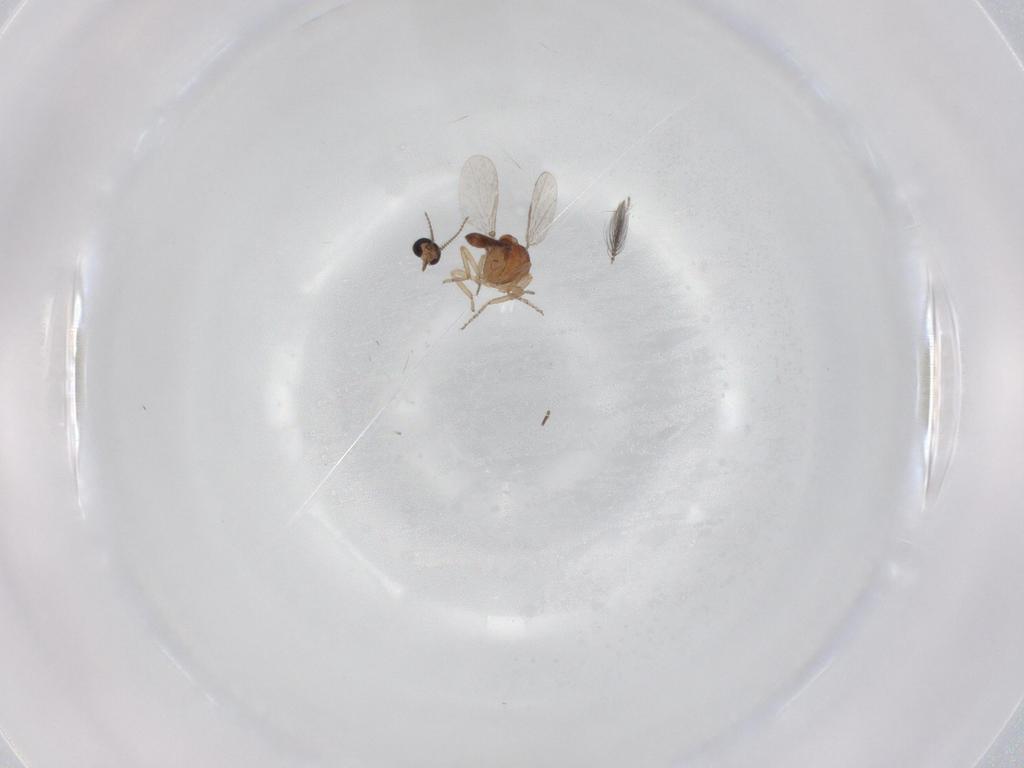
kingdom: Animalia
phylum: Arthropoda
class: Insecta
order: Diptera
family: Ceratopogonidae
